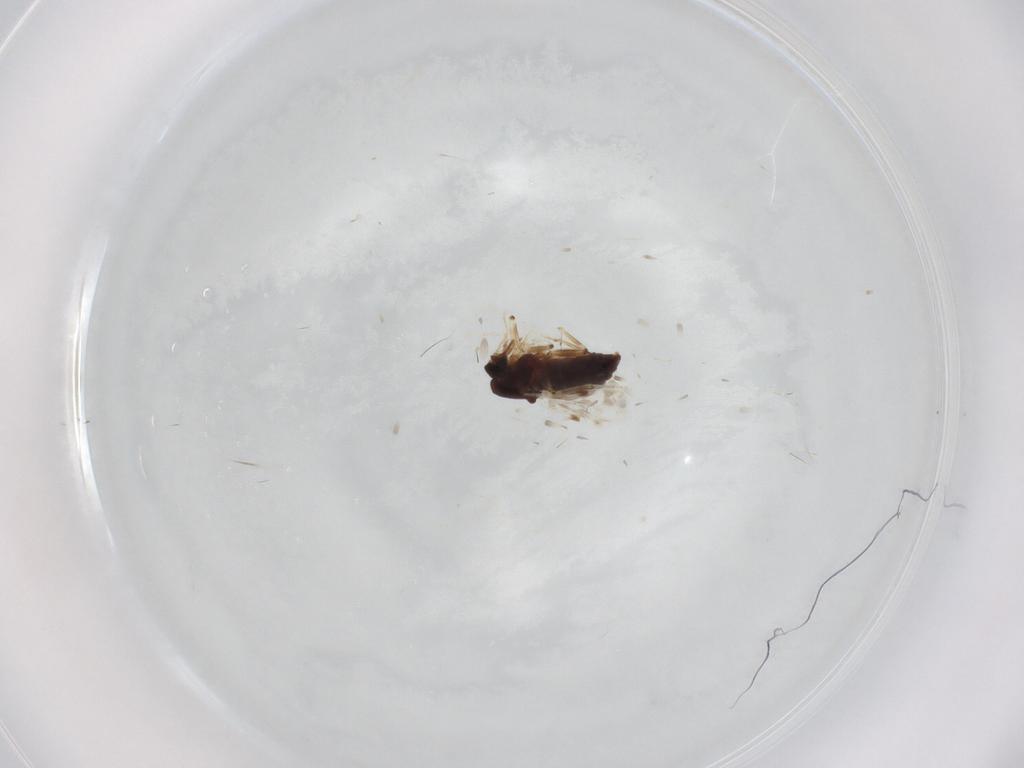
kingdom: Animalia
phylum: Arthropoda
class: Insecta
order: Diptera
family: Ceratopogonidae
